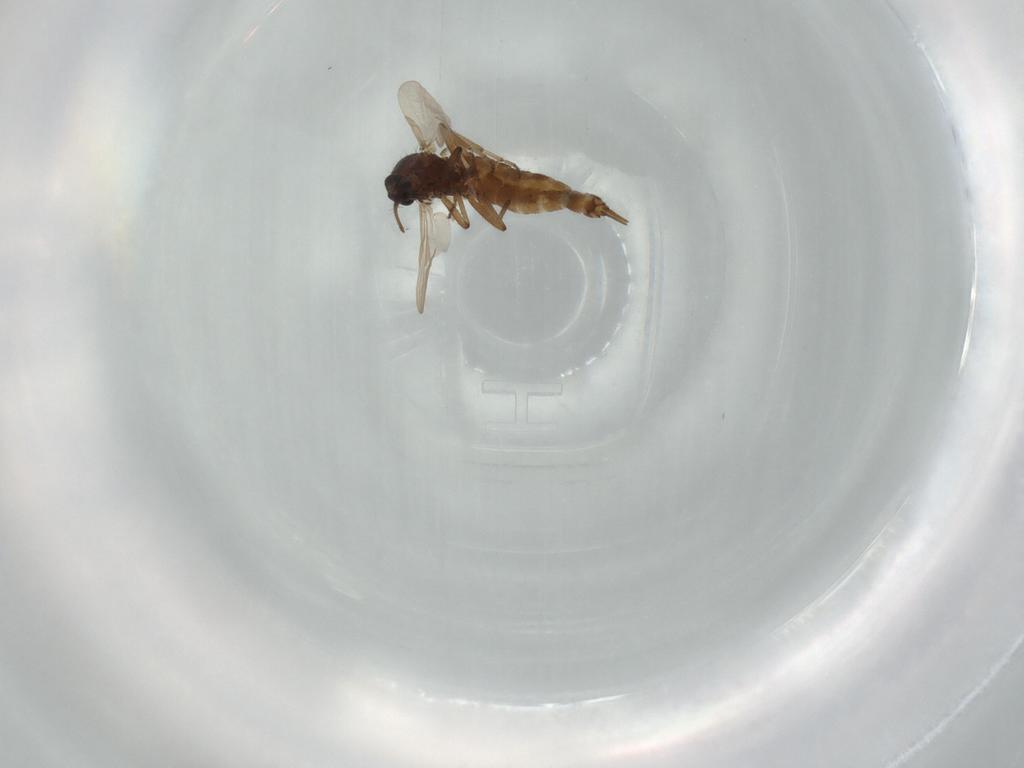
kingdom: Animalia
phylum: Arthropoda
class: Insecta
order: Diptera
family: Ceratopogonidae
